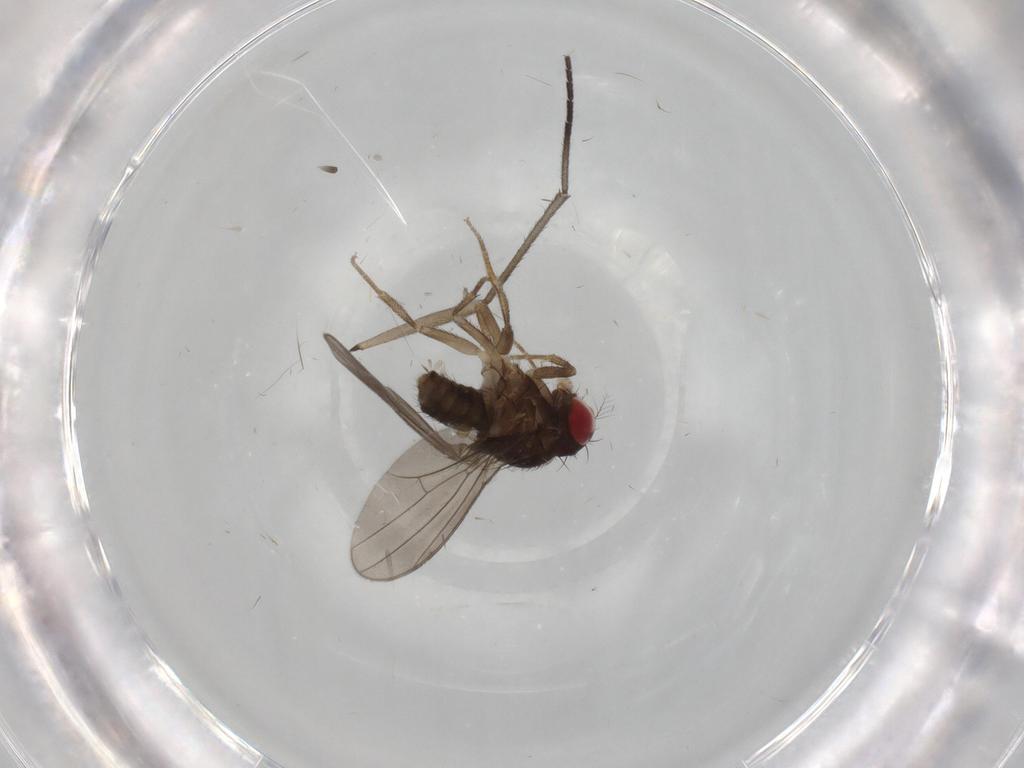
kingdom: Animalia
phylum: Arthropoda
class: Insecta
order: Diptera
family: Drosophilidae
